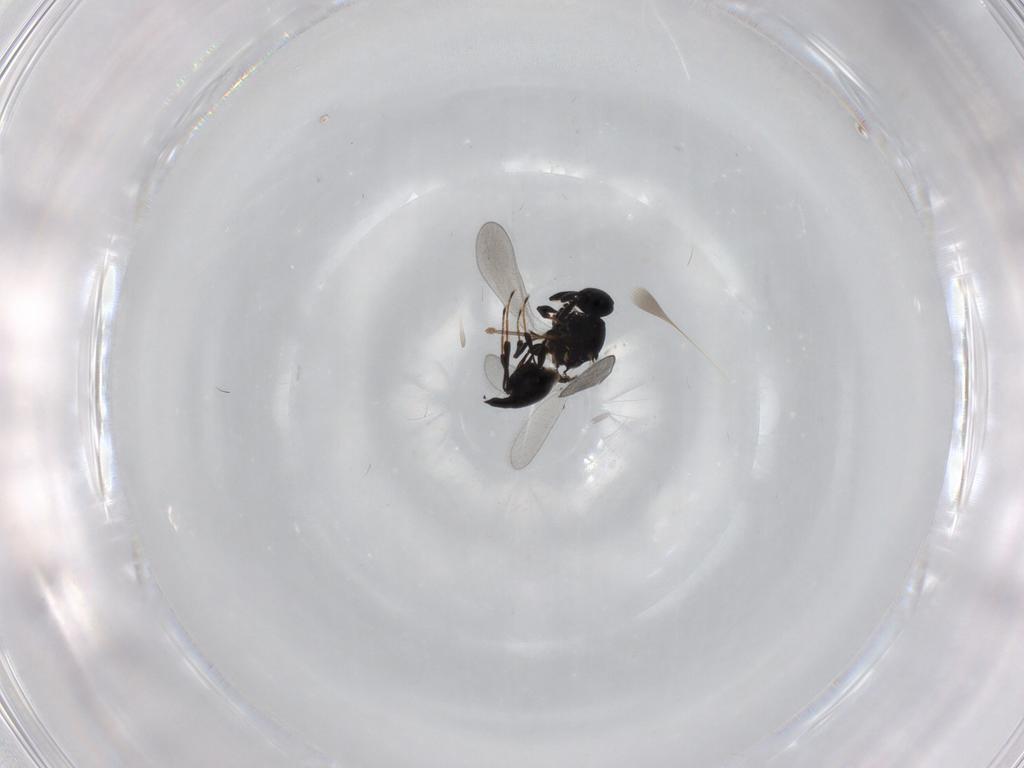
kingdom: Animalia
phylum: Arthropoda
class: Insecta
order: Hymenoptera
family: Platygastridae
